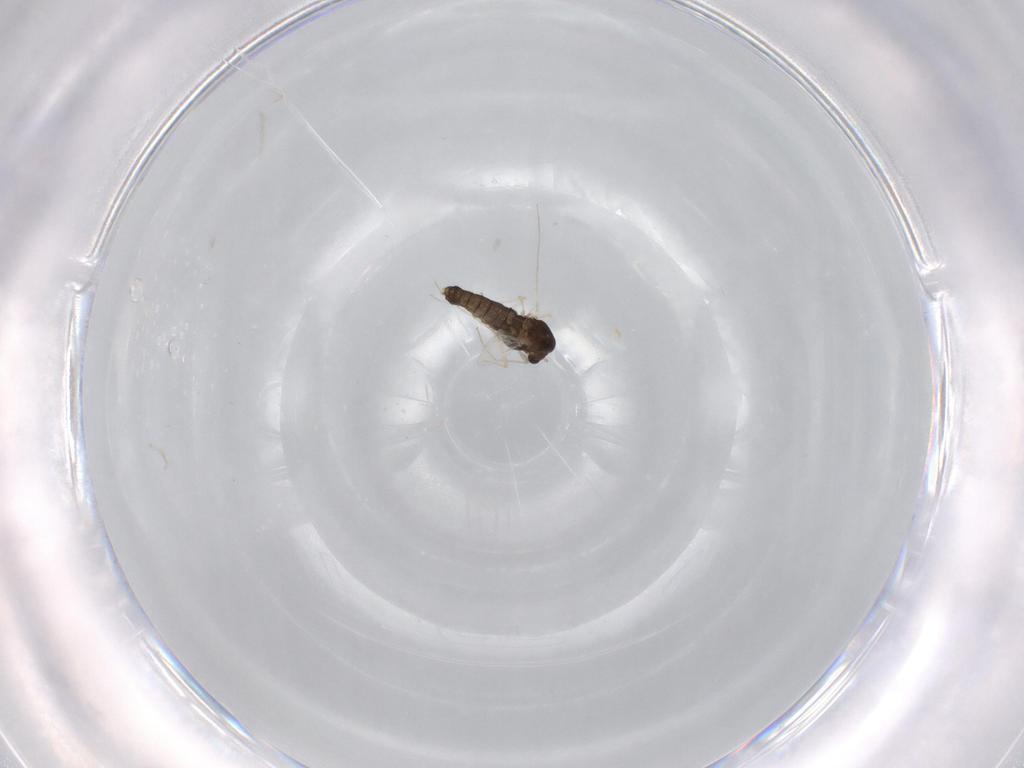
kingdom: Animalia
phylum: Arthropoda
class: Insecta
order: Diptera
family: Chironomidae
